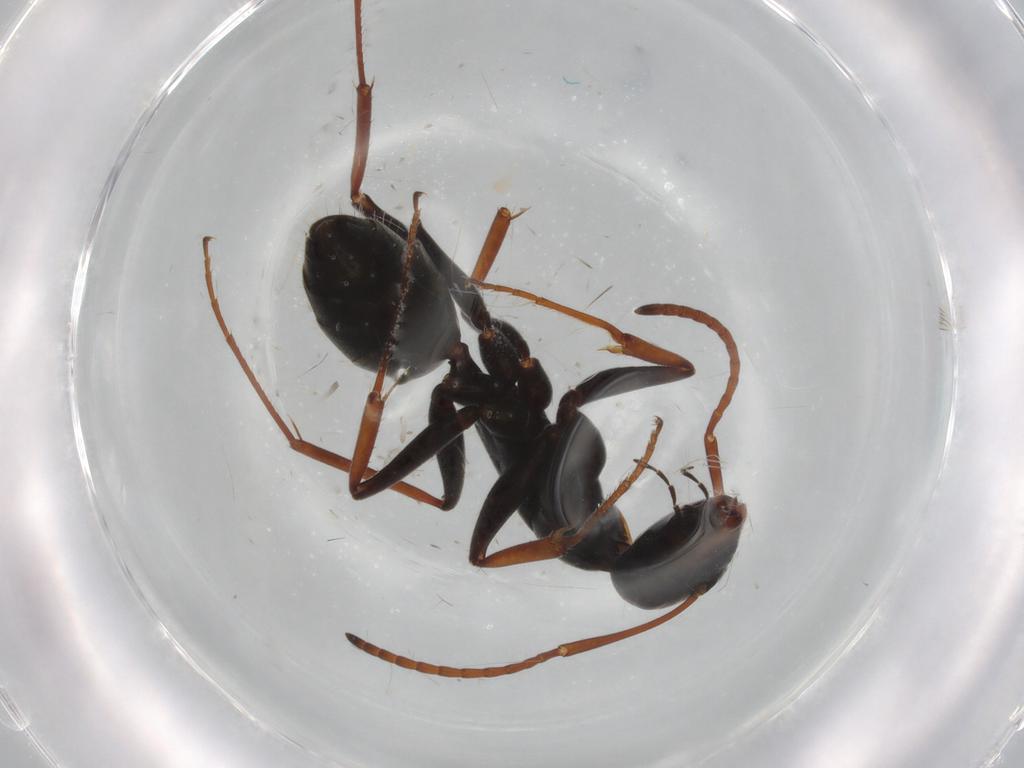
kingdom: Animalia
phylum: Arthropoda
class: Insecta
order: Hymenoptera
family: Formicidae
